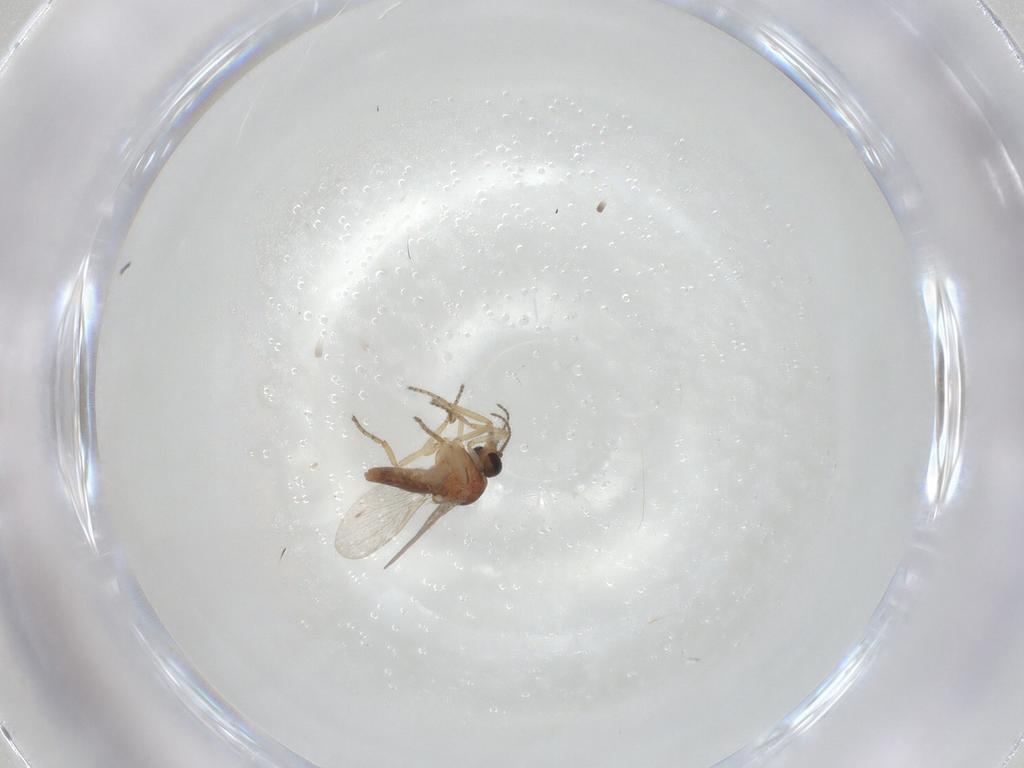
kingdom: Animalia
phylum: Arthropoda
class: Insecta
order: Diptera
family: Ceratopogonidae
